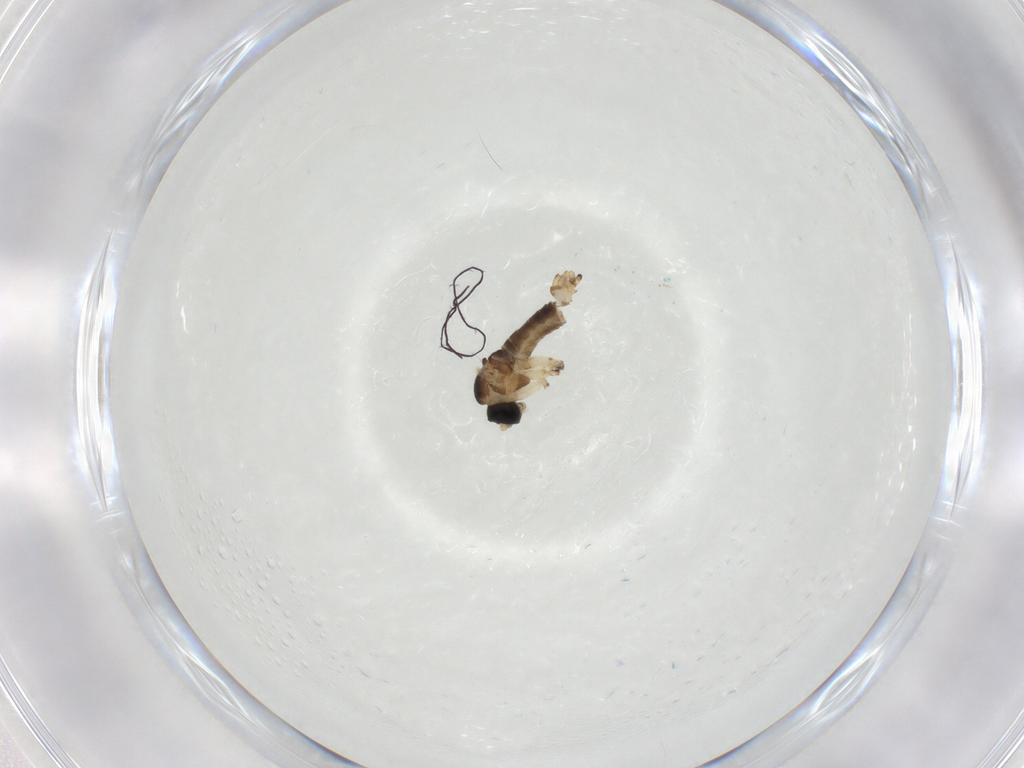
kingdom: Animalia
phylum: Arthropoda
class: Insecta
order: Diptera
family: Sciaridae
